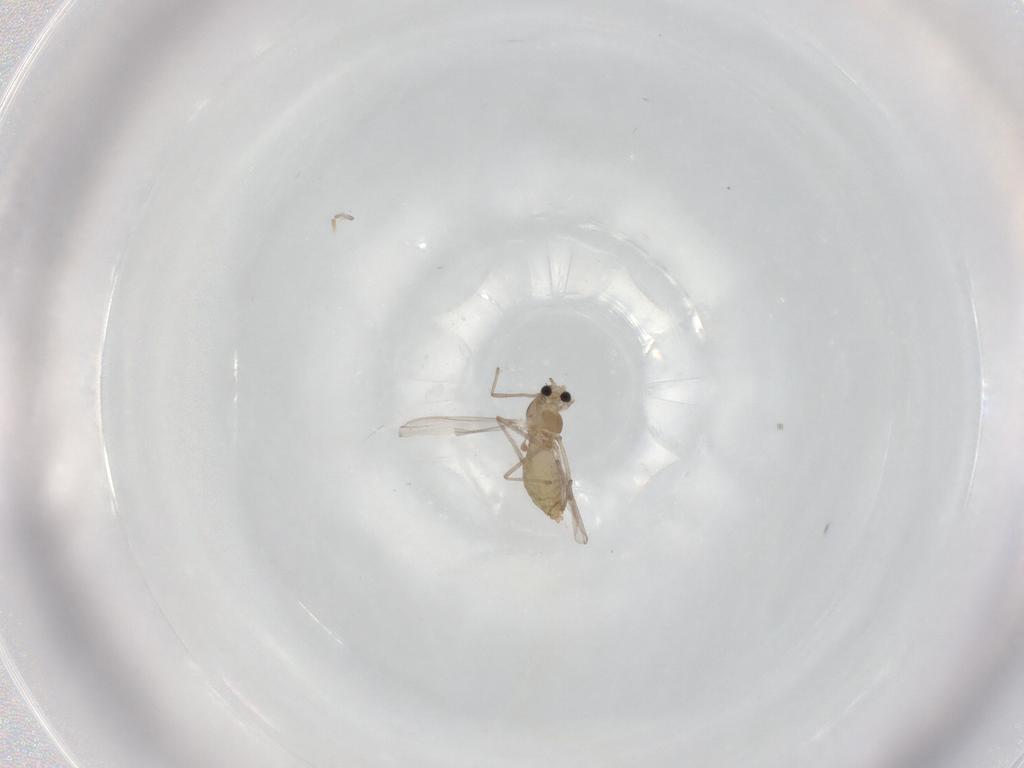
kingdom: Animalia
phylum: Arthropoda
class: Insecta
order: Diptera
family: Chironomidae
